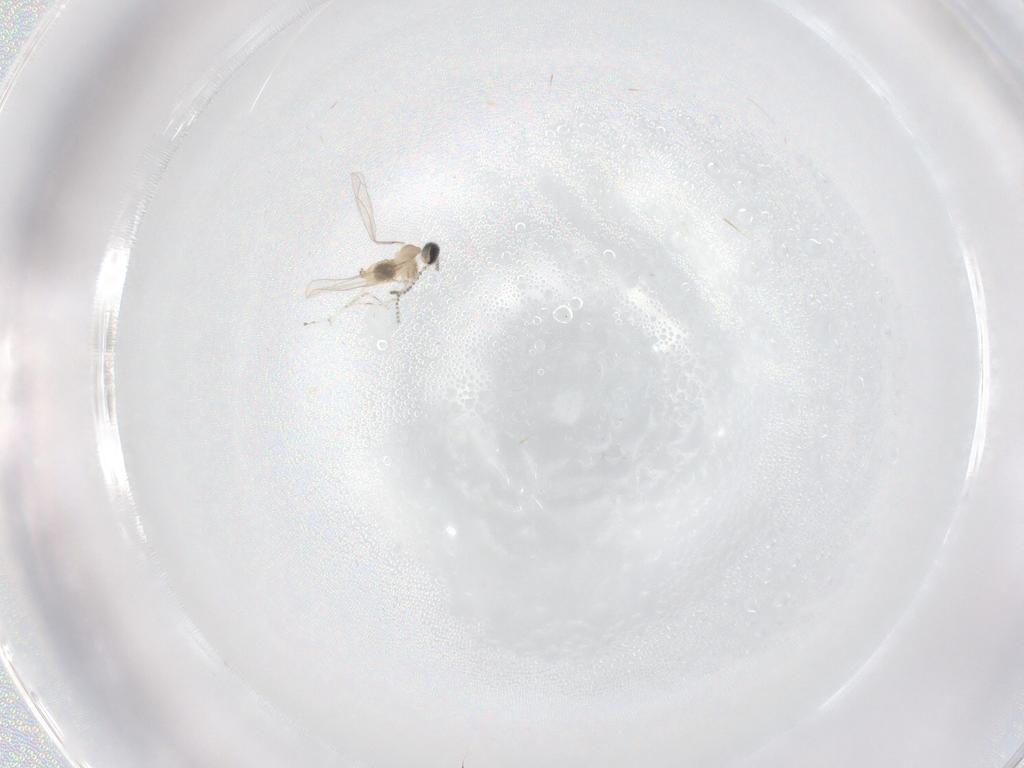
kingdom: Animalia
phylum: Arthropoda
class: Insecta
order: Diptera
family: Cecidomyiidae
